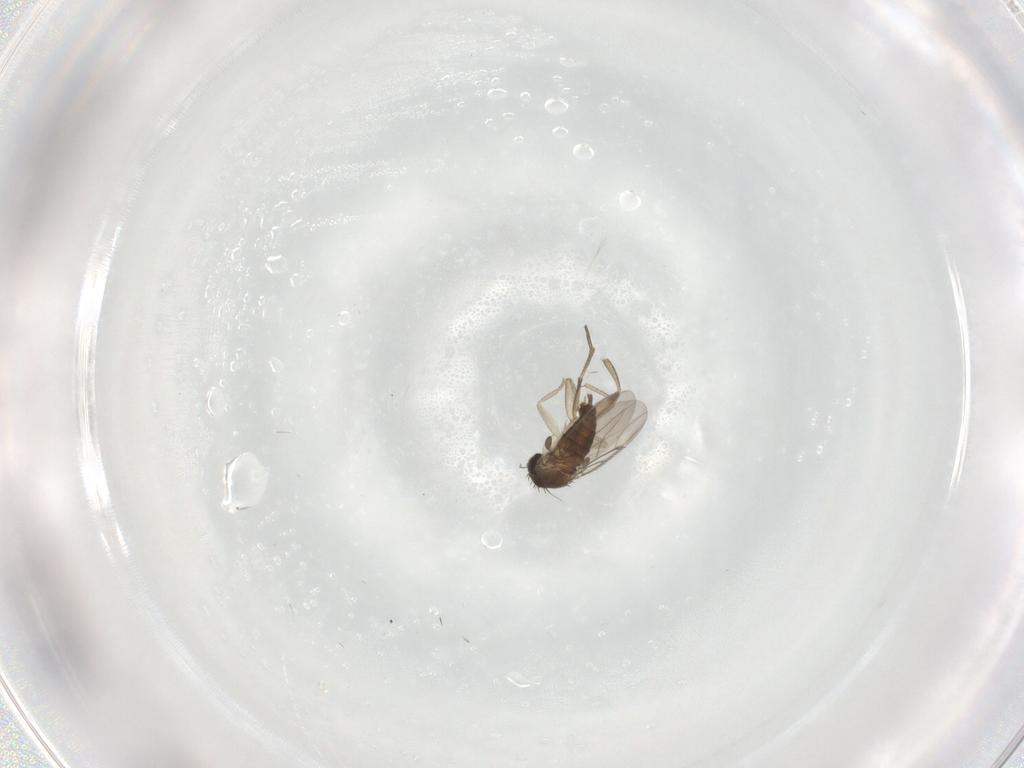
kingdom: Animalia
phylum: Arthropoda
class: Insecta
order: Diptera
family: Phoridae
